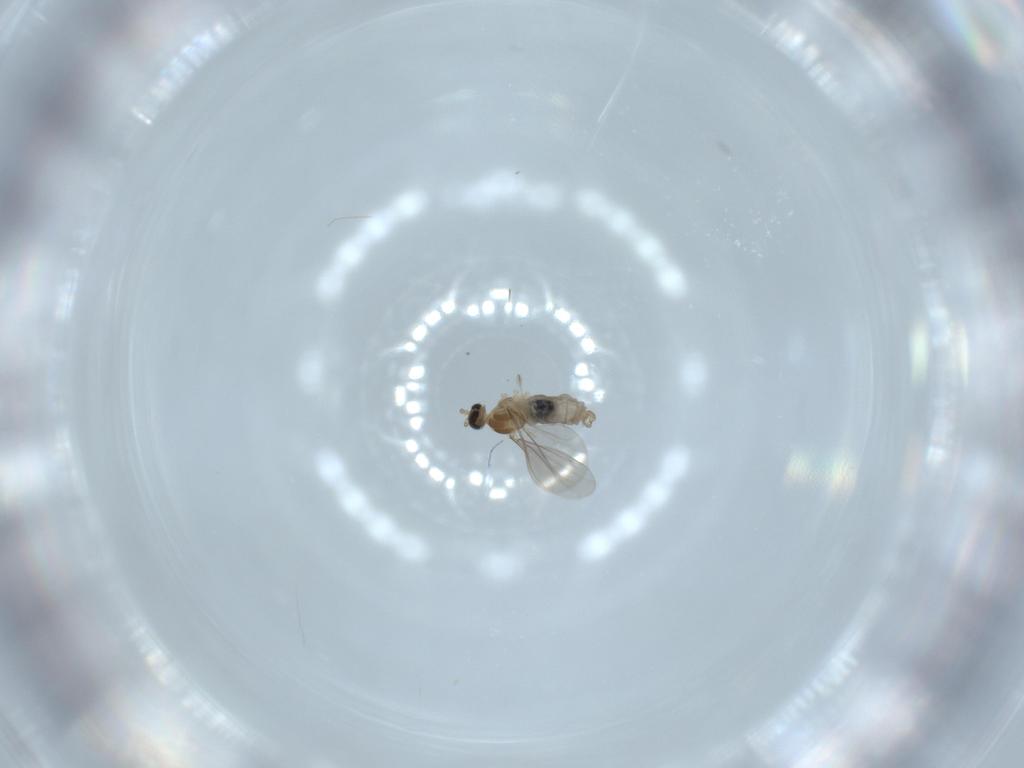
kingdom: Animalia
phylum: Arthropoda
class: Insecta
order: Diptera
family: Cecidomyiidae
